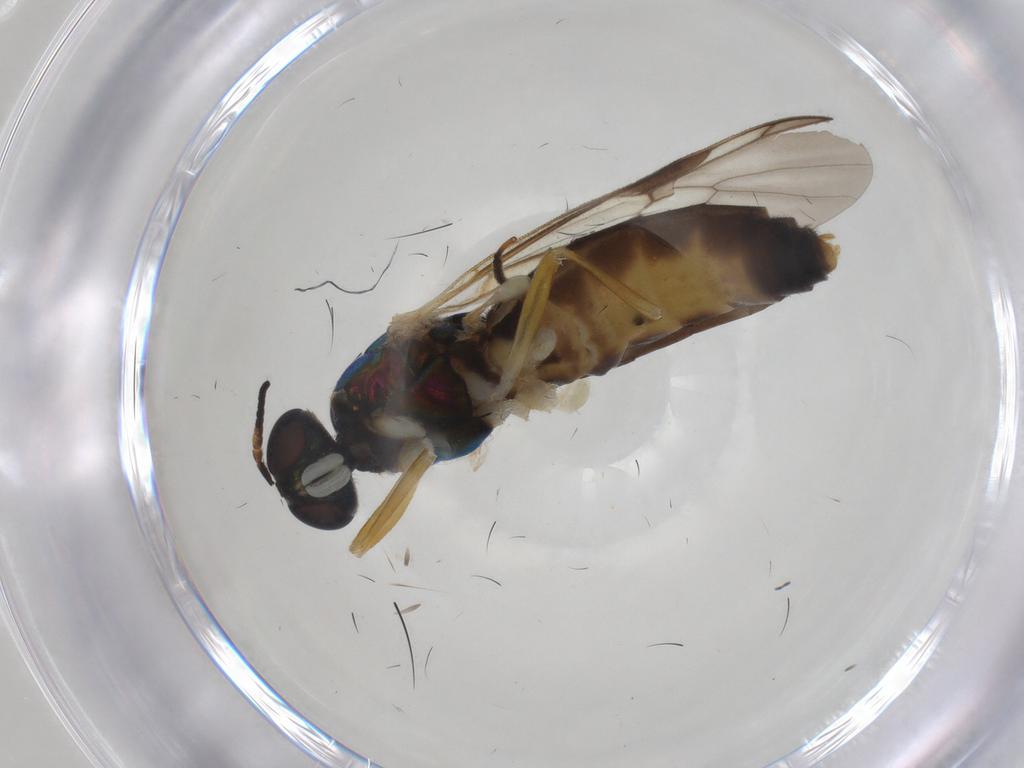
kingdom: Animalia
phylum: Arthropoda
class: Insecta
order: Diptera
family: Stratiomyidae
